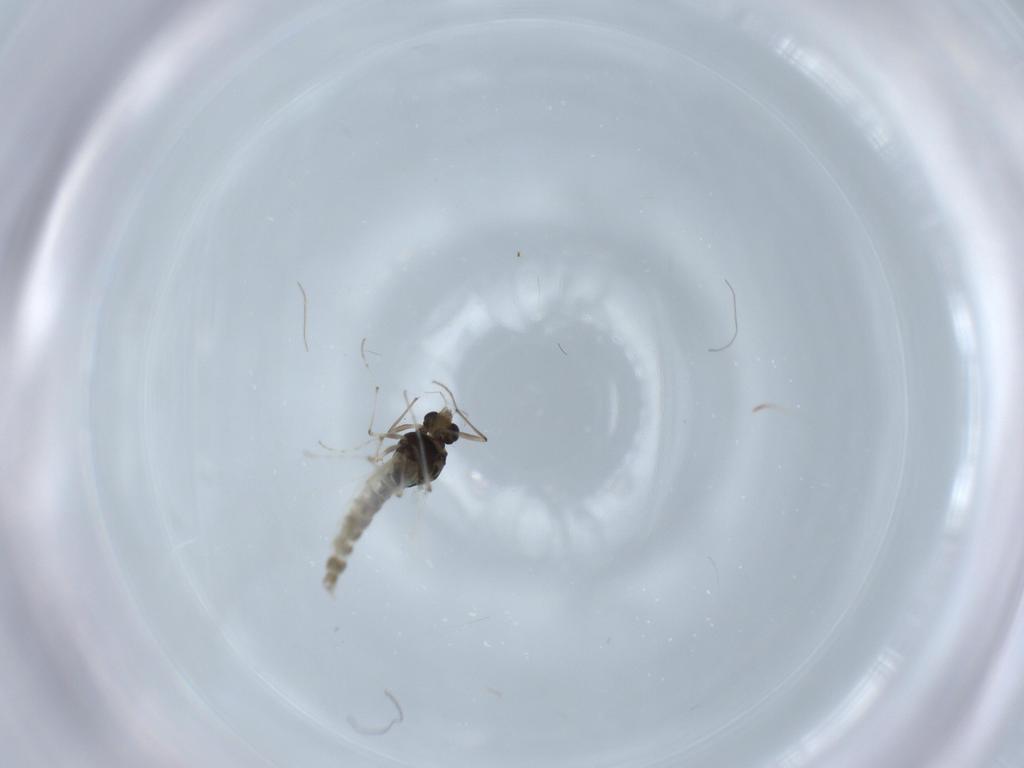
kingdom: Animalia
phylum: Arthropoda
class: Insecta
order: Diptera
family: Chironomidae
